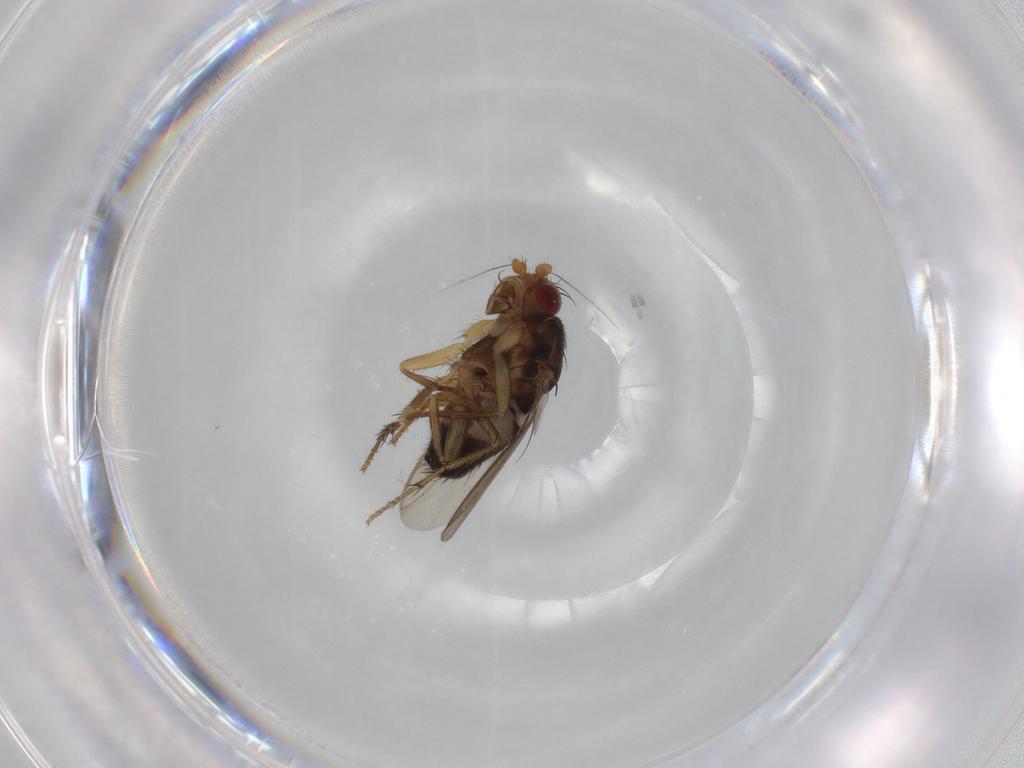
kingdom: Animalia
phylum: Arthropoda
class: Insecta
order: Diptera
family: Sphaeroceridae
